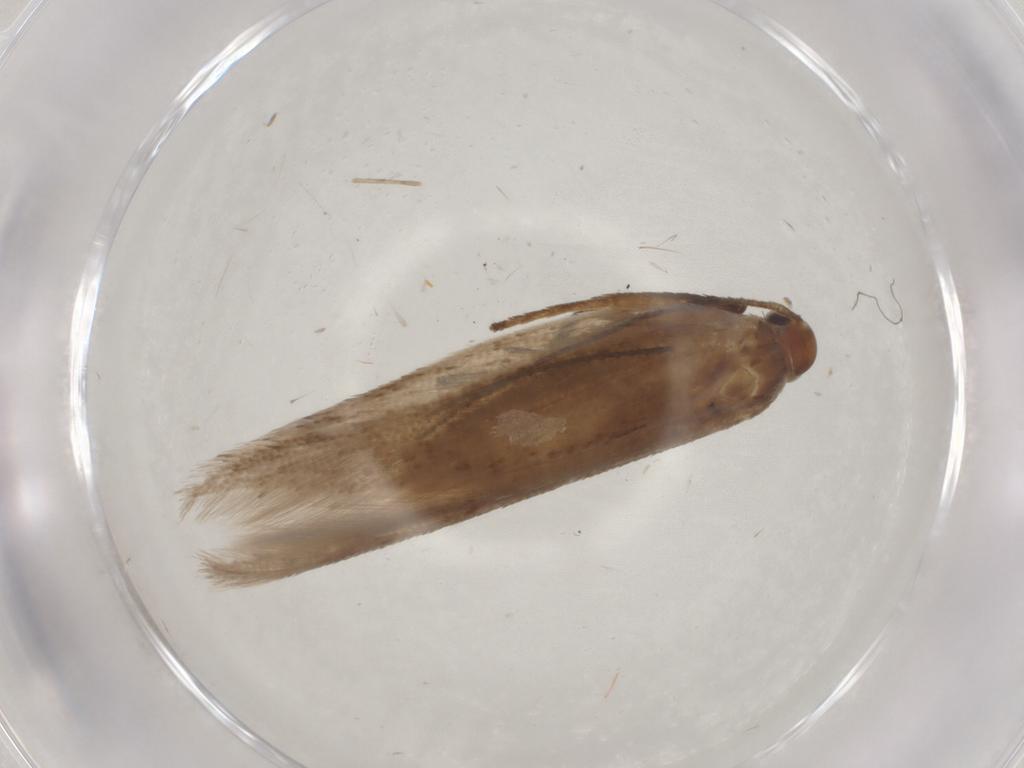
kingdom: Animalia
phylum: Arthropoda
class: Insecta
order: Lepidoptera
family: Gelechiidae
